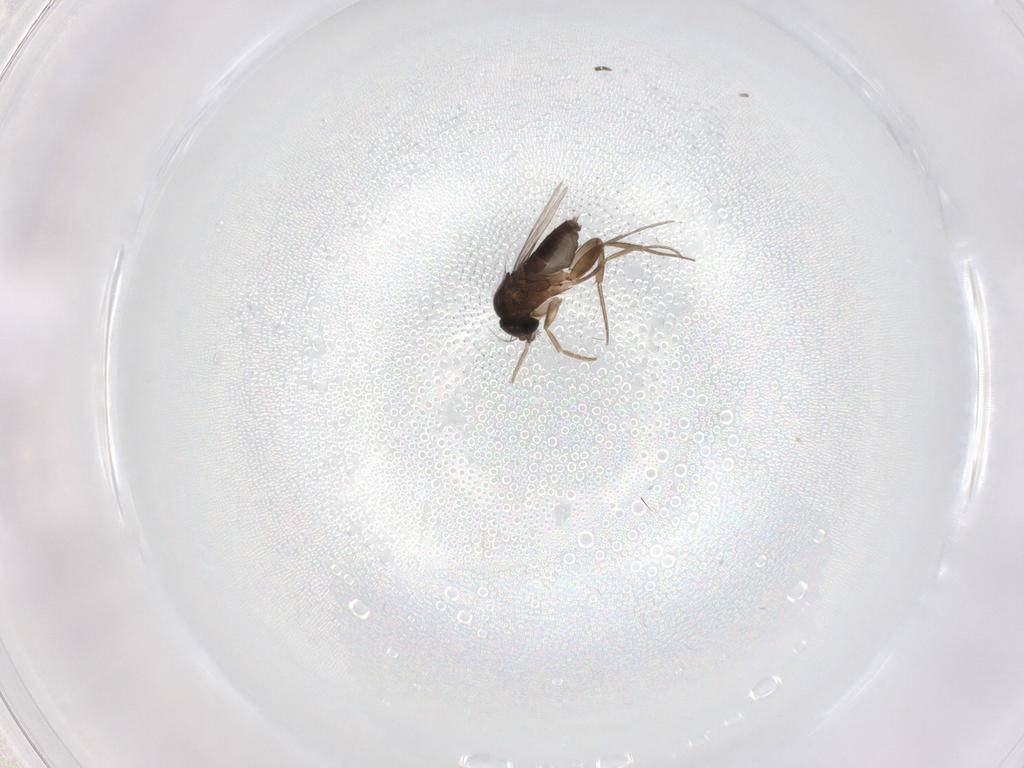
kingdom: Animalia
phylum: Arthropoda
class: Insecta
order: Diptera
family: Phoridae
